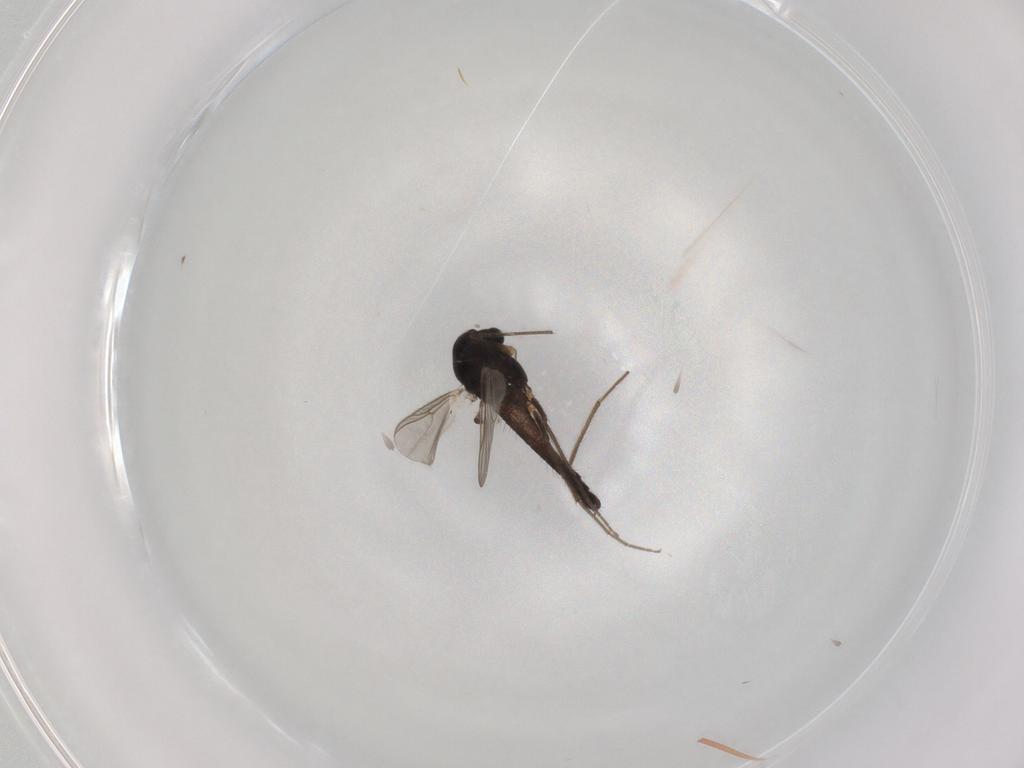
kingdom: Animalia
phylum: Arthropoda
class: Insecta
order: Diptera
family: Chironomidae
